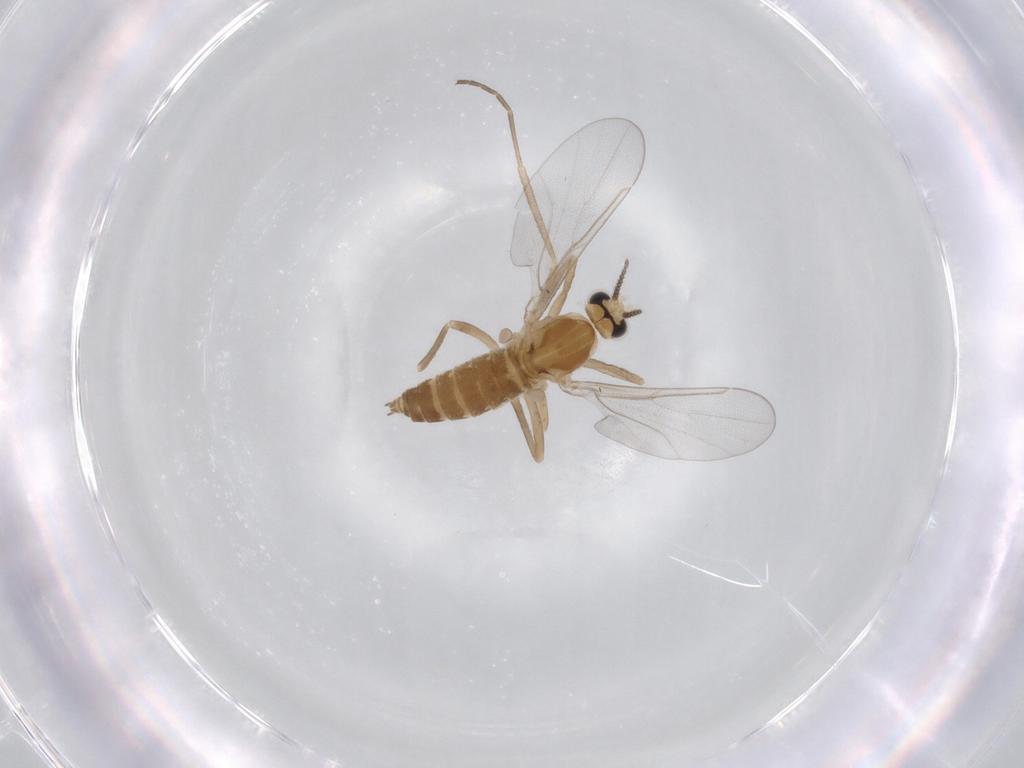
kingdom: Animalia
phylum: Arthropoda
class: Insecta
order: Diptera
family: Cecidomyiidae
